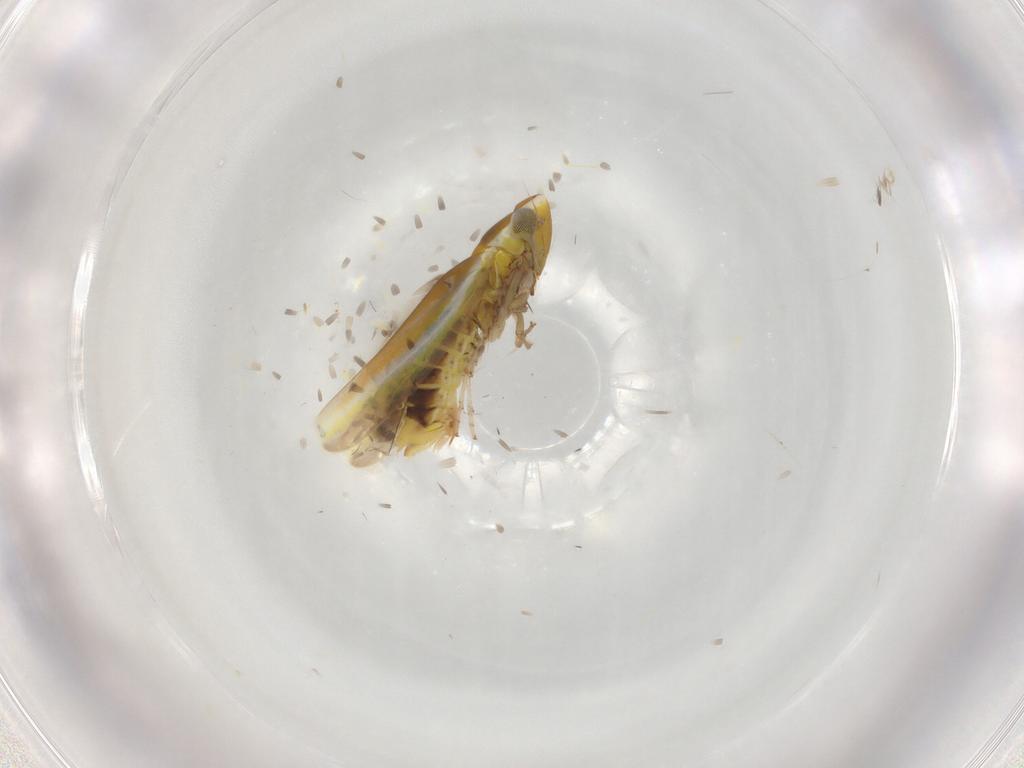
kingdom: Animalia
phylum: Arthropoda
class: Insecta
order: Hemiptera
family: Cicadellidae
